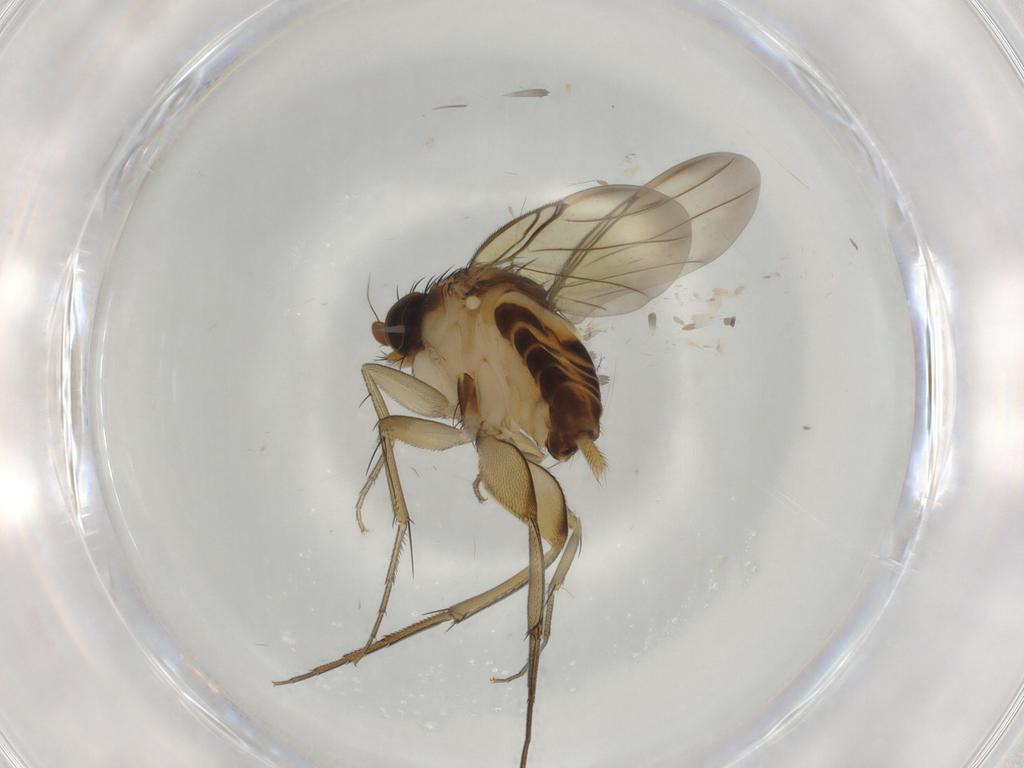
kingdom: Animalia
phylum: Arthropoda
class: Insecta
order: Diptera
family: Phoridae
